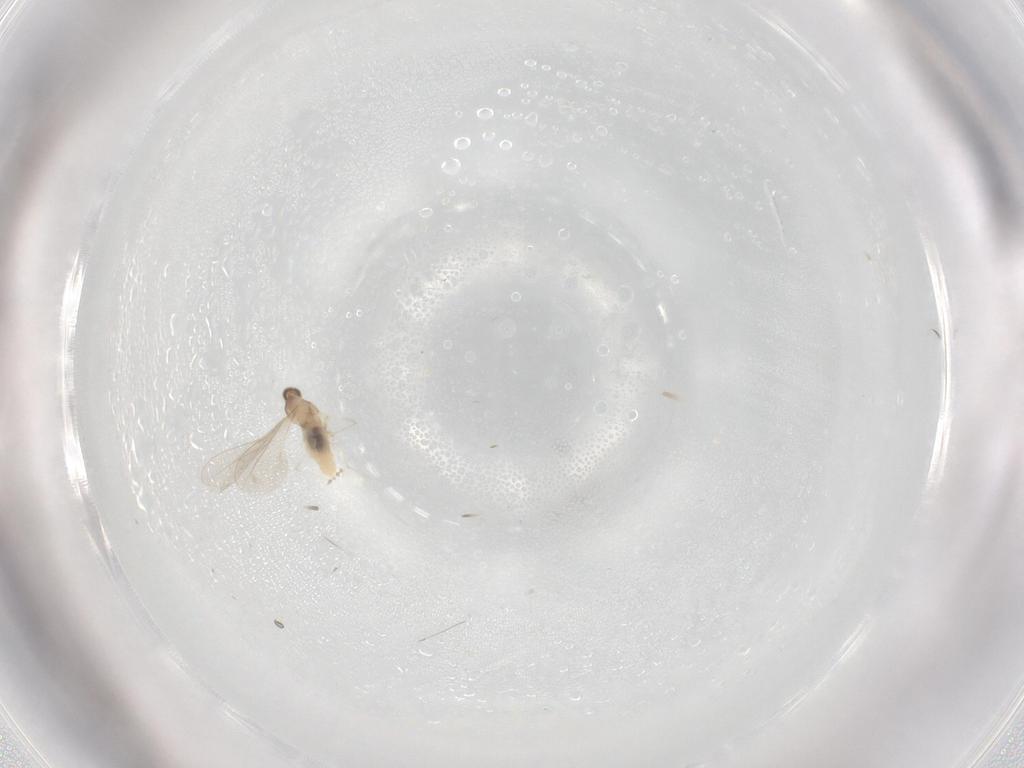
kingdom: Animalia
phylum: Arthropoda
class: Insecta
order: Diptera
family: Cecidomyiidae
